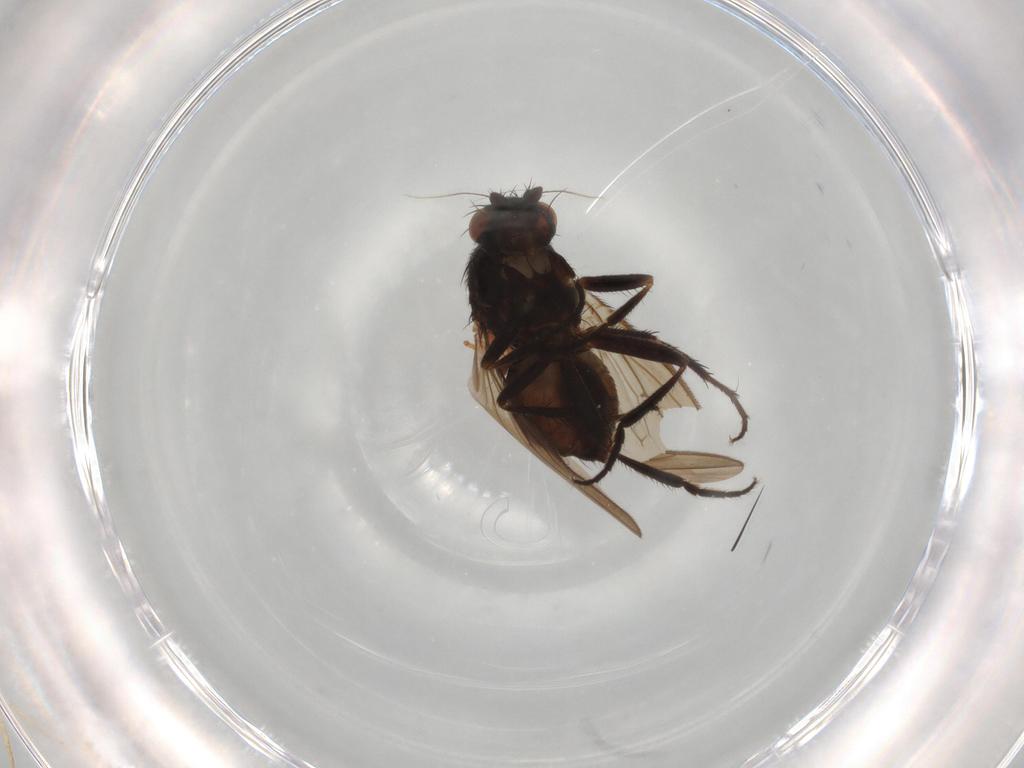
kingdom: Animalia
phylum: Arthropoda
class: Insecta
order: Diptera
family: Sphaeroceridae
